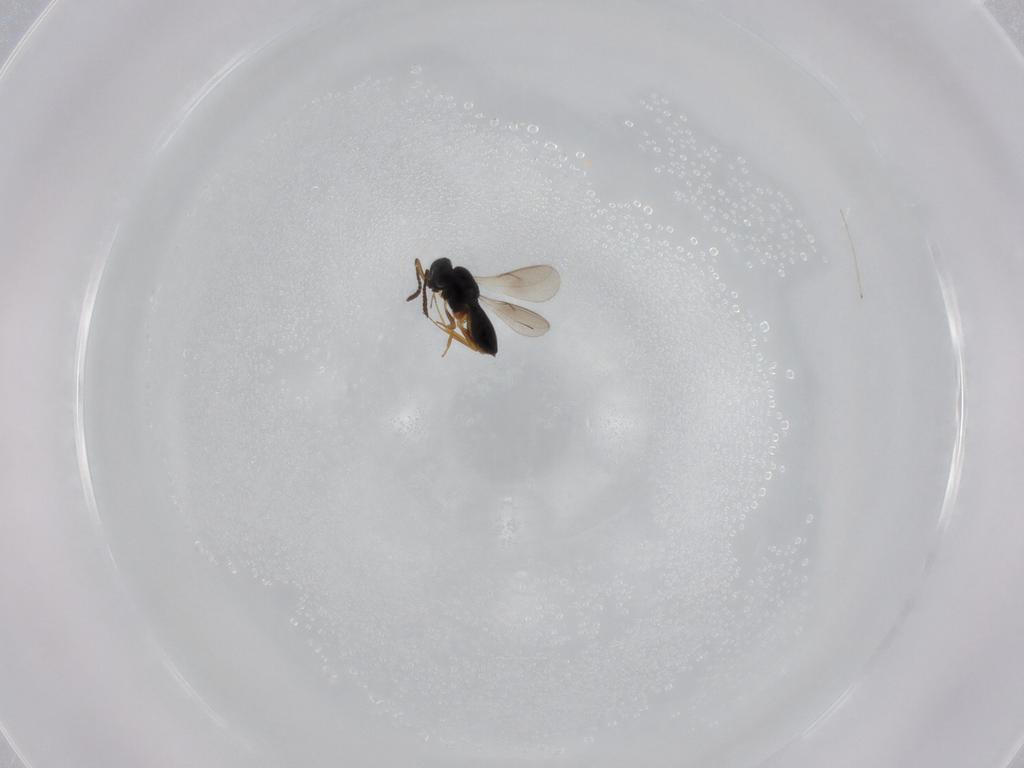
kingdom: Animalia
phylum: Arthropoda
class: Insecta
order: Hymenoptera
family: Scelionidae
